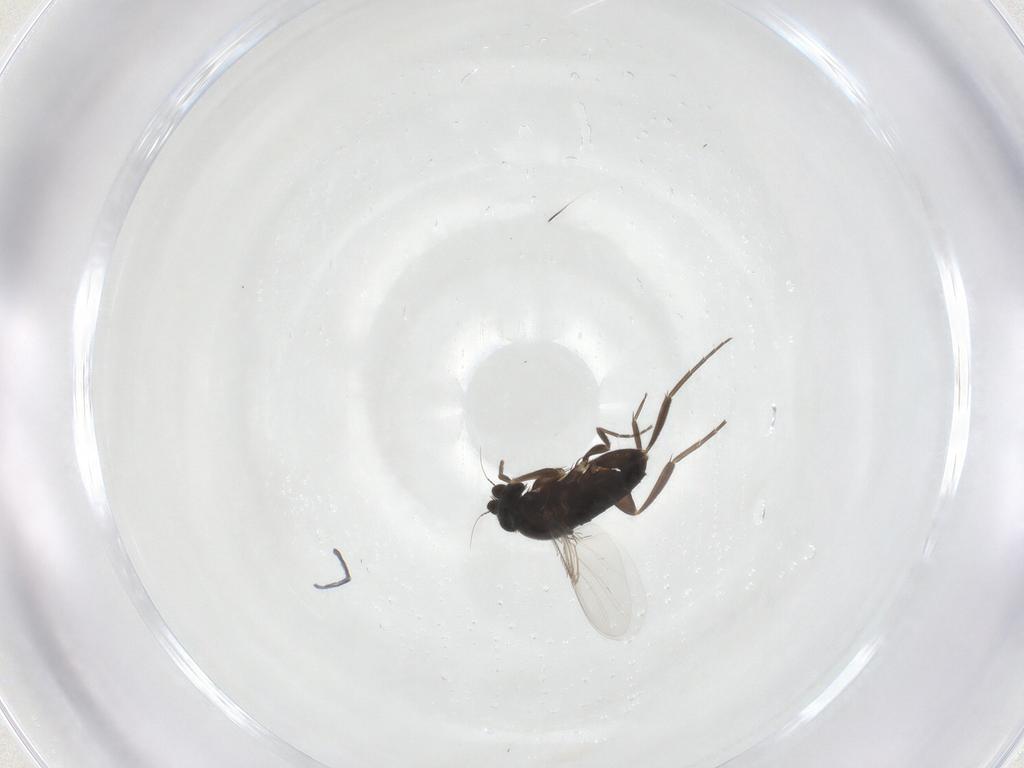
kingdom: Animalia
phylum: Arthropoda
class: Insecta
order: Diptera
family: Phoridae
